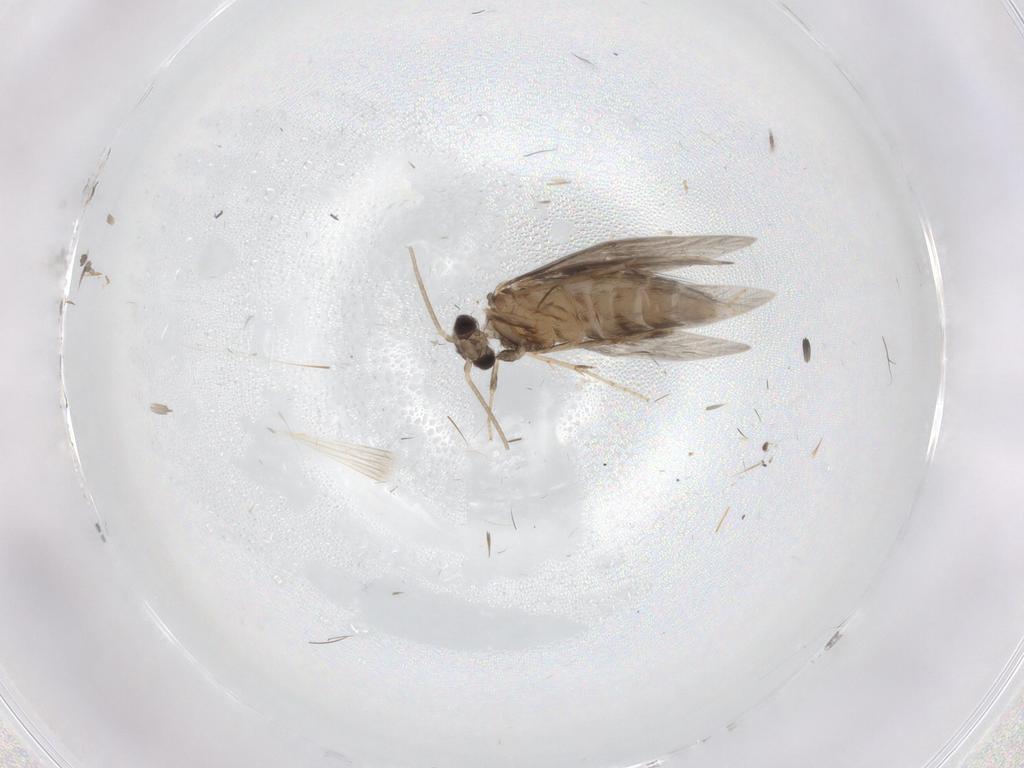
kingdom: Animalia
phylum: Arthropoda
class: Insecta
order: Trichoptera
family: Hydroptilidae
